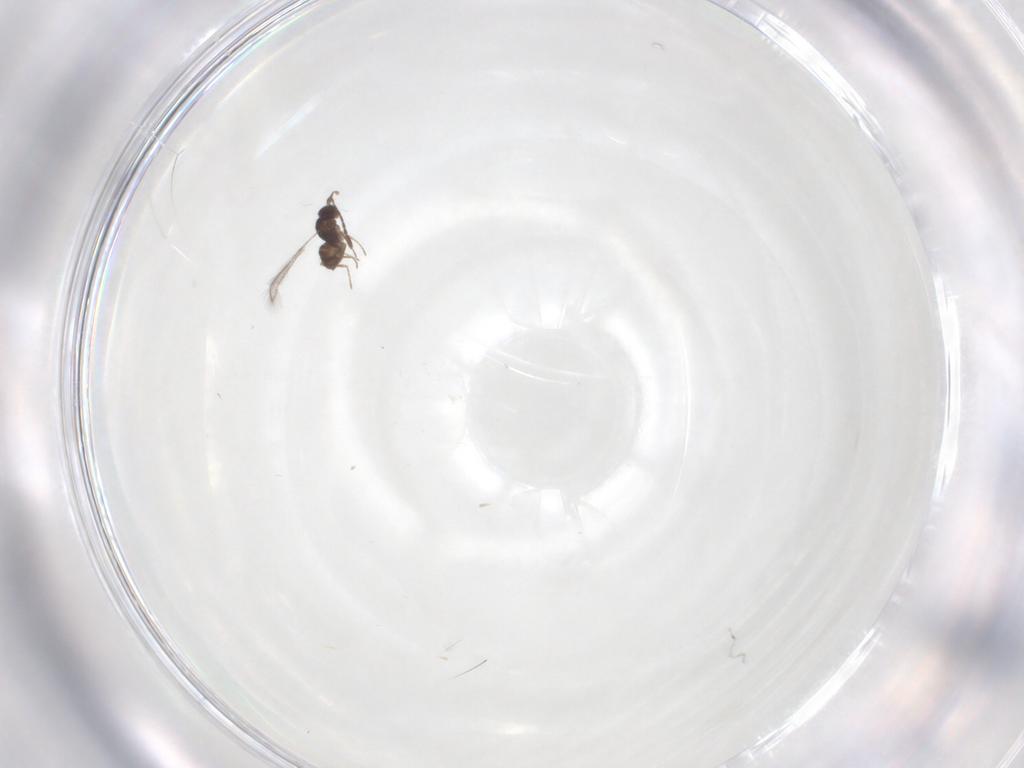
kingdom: Animalia
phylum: Arthropoda
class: Insecta
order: Hymenoptera
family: Mymaridae
